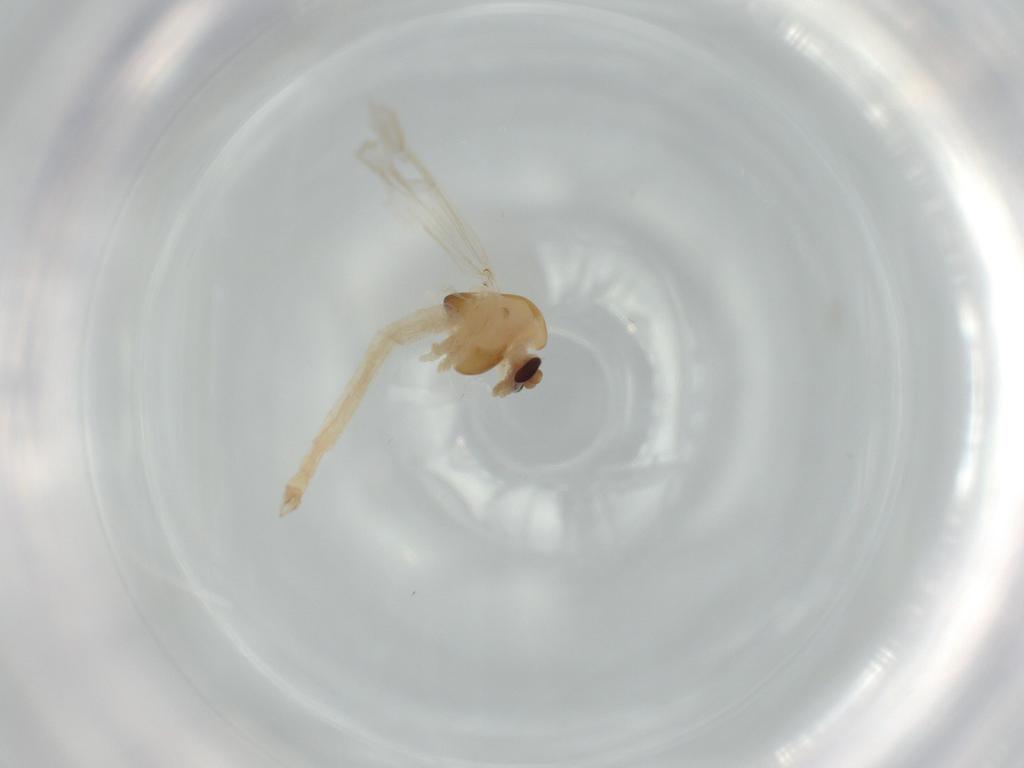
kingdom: Animalia
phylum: Arthropoda
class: Insecta
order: Diptera
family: Chironomidae
